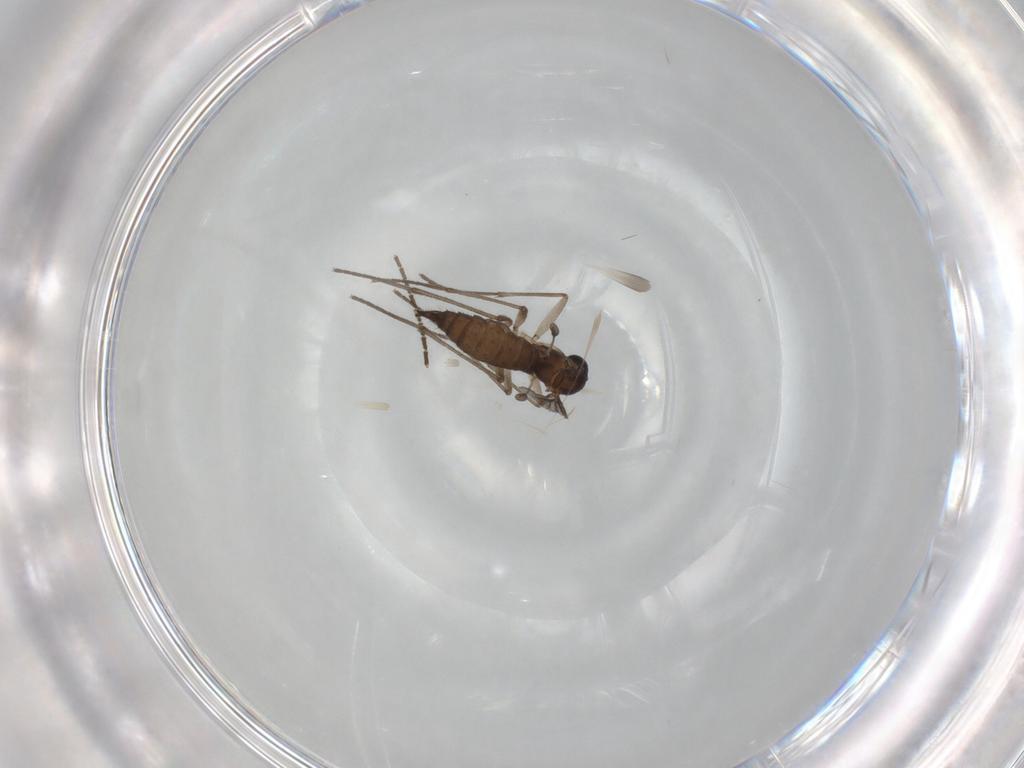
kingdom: Animalia
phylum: Arthropoda
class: Insecta
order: Diptera
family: Sciaridae
